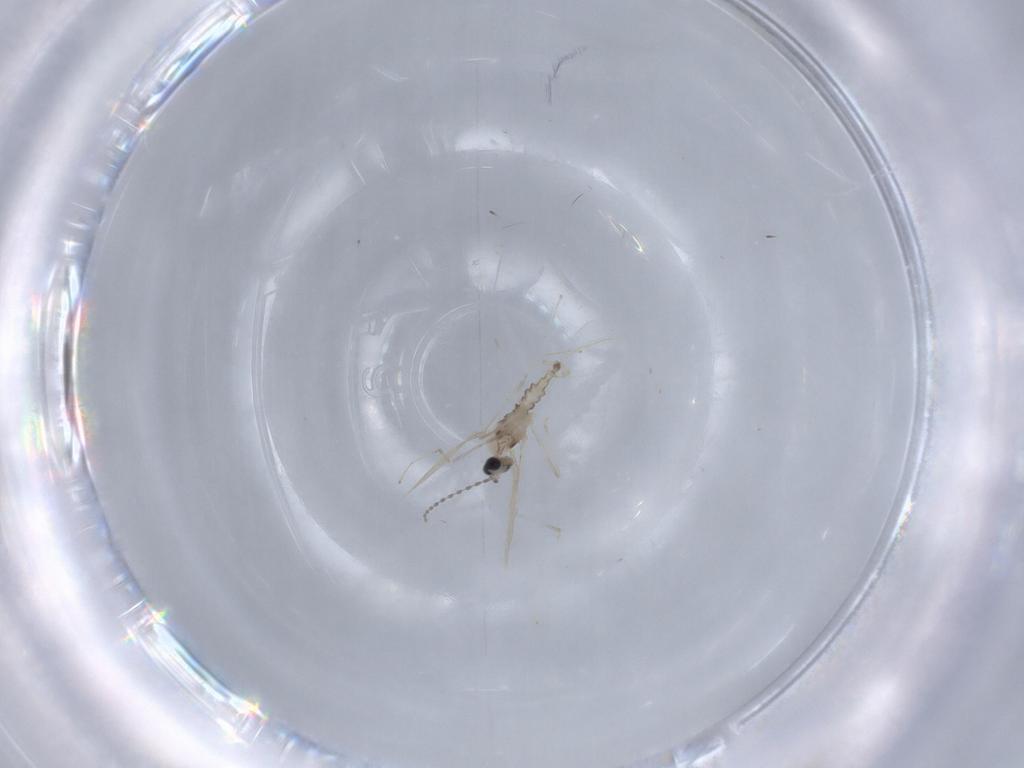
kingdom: Animalia
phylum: Arthropoda
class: Insecta
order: Diptera
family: Cecidomyiidae
